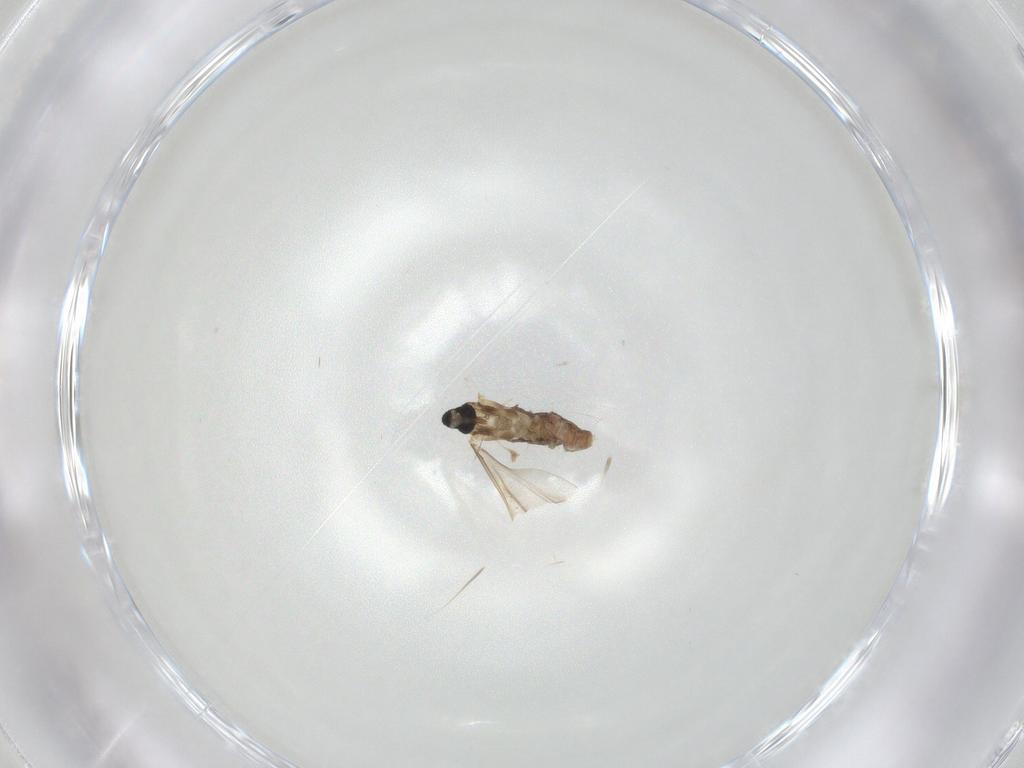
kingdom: Animalia
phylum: Arthropoda
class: Insecta
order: Diptera
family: Cecidomyiidae
